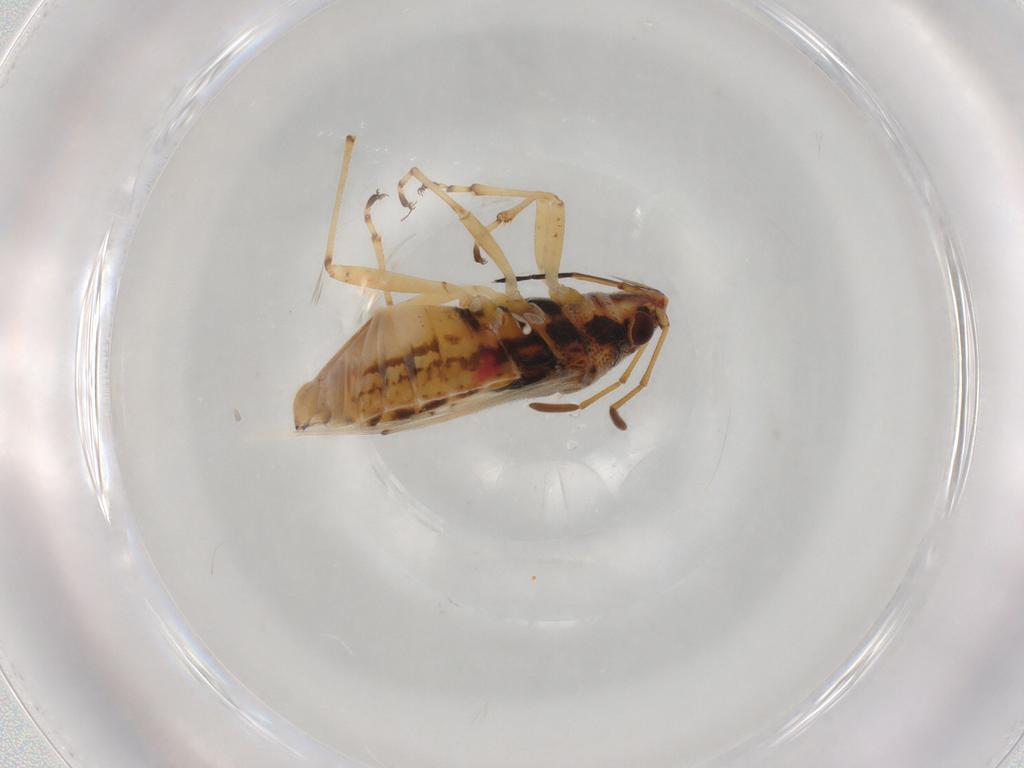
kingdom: Animalia
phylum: Arthropoda
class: Insecta
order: Hemiptera
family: Lygaeidae
